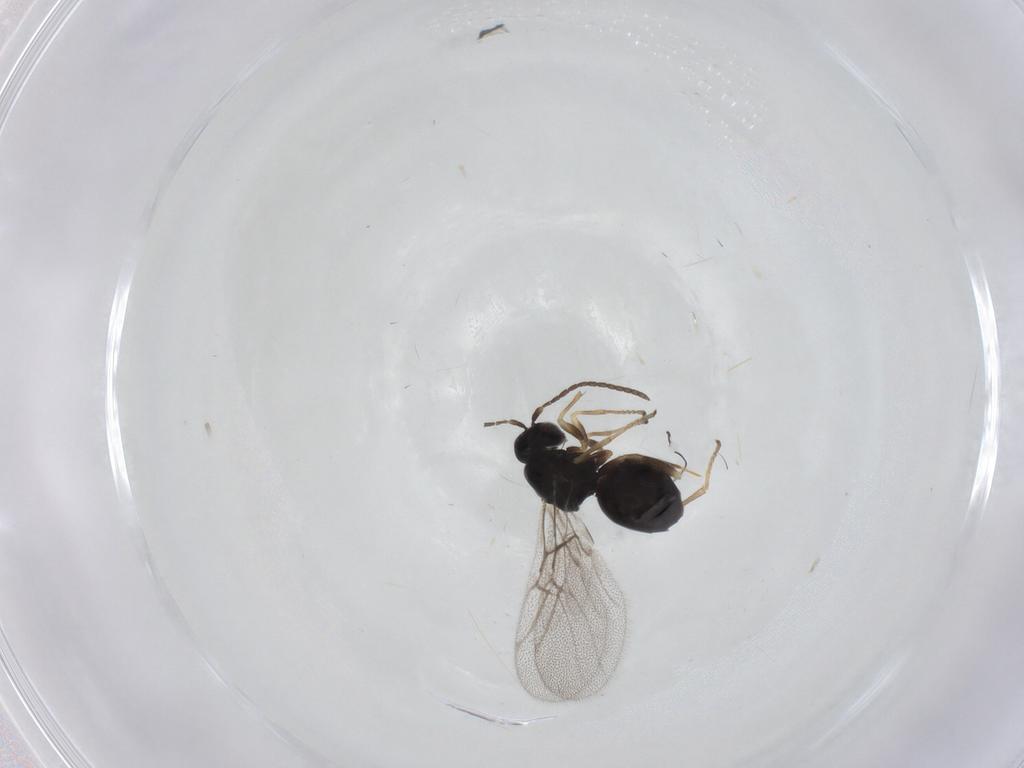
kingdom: Animalia
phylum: Arthropoda
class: Insecta
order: Hymenoptera
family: Cynipidae
